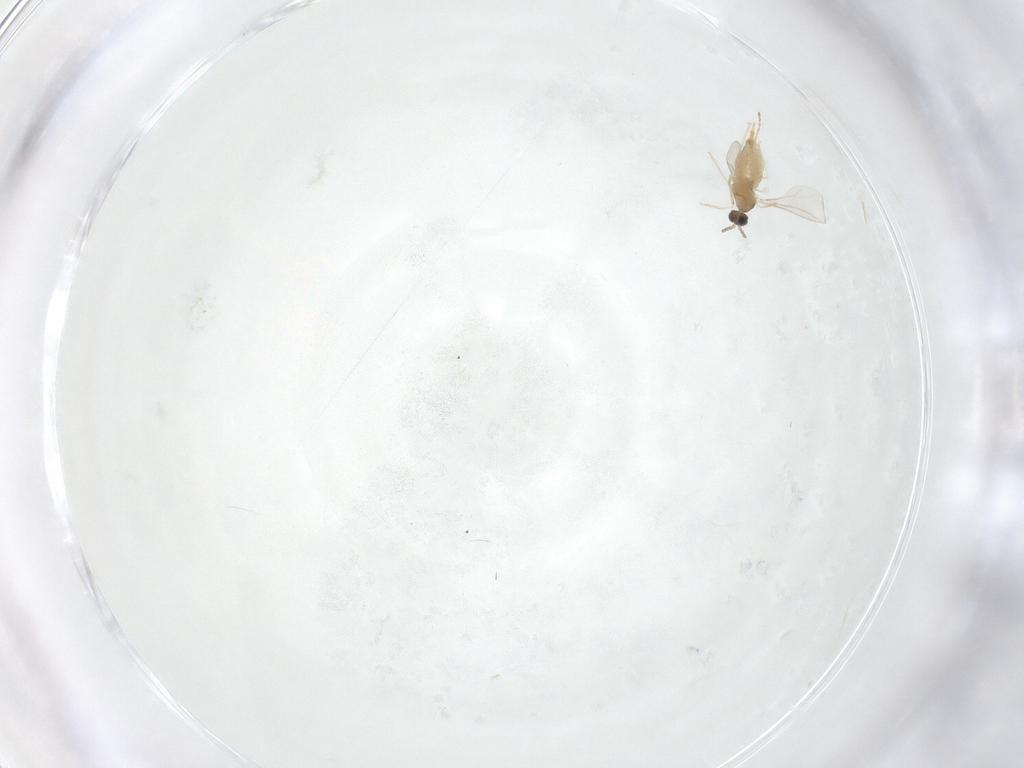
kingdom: Animalia
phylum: Arthropoda
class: Insecta
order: Diptera
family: Cecidomyiidae
